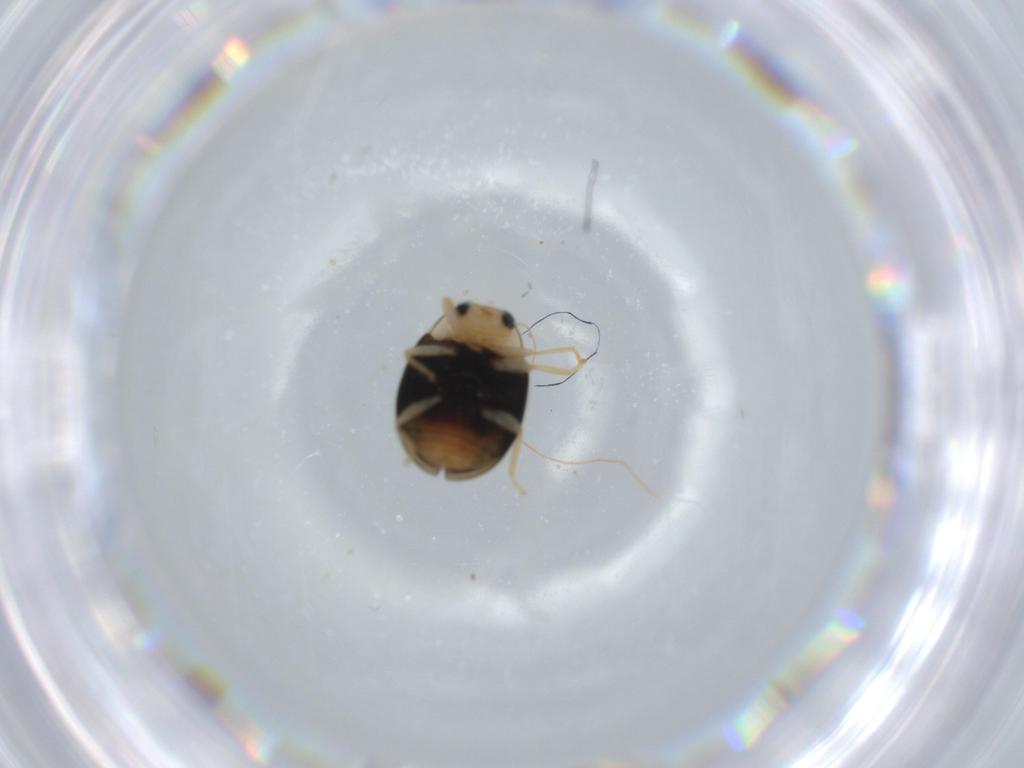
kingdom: Animalia
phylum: Arthropoda
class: Insecta
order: Coleoptera
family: Coccinellidae
